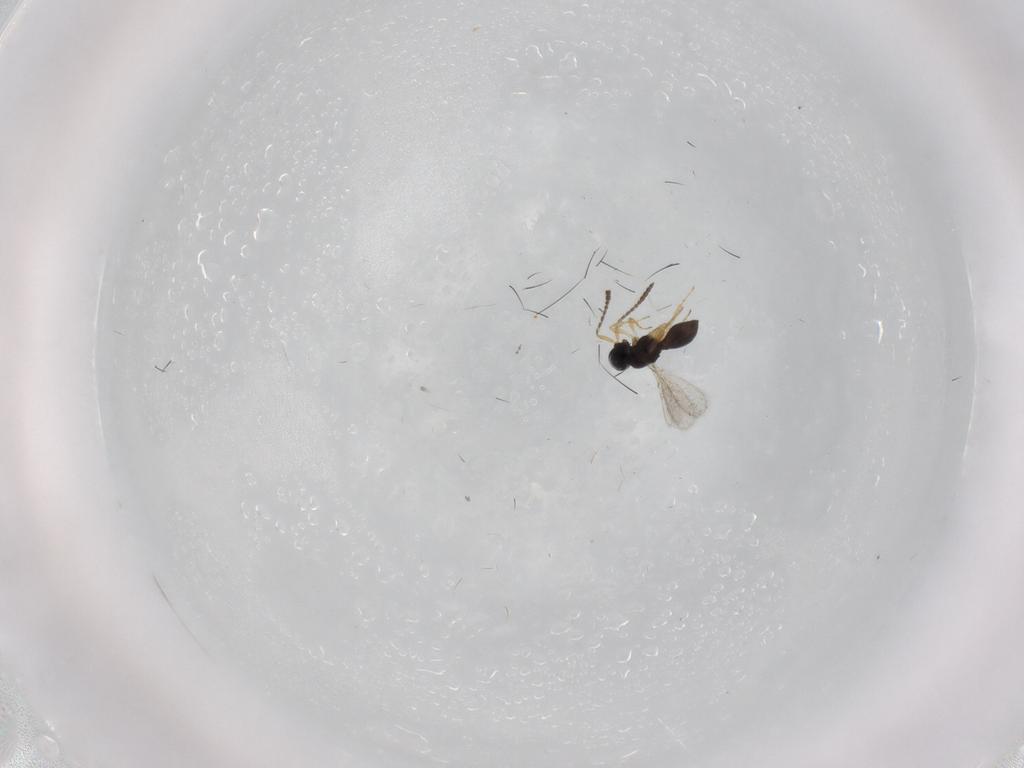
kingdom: Animalia
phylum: Arthropoda
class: Insecta
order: Hymenoptera
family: Scelionidae
